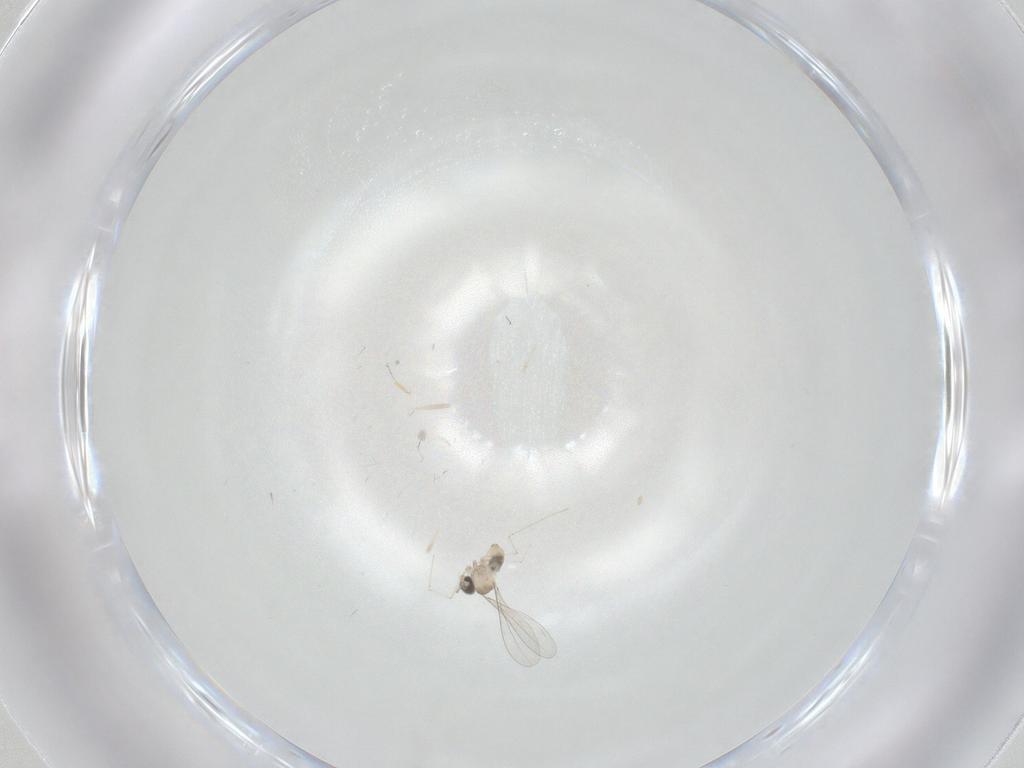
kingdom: Animalia
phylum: Arthropoda
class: Insecta
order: Diptera
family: Cecidomyiidae
